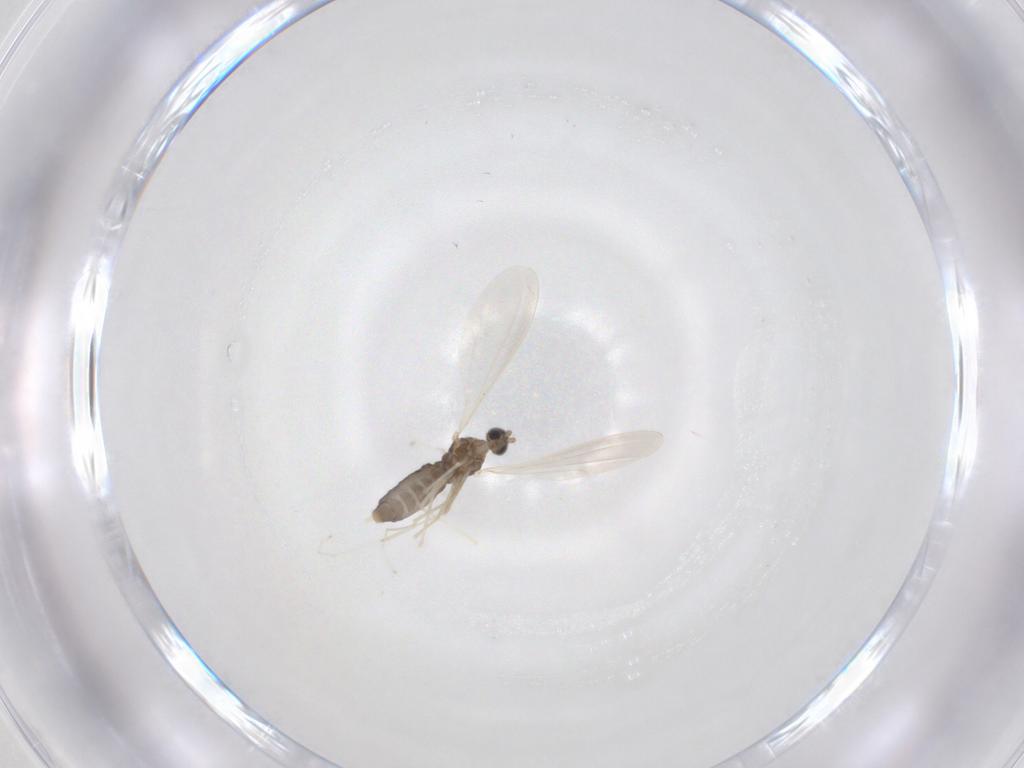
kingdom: Animalia
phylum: Arthropoda
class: Insecta
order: Diptera
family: Cecidomyiidae
